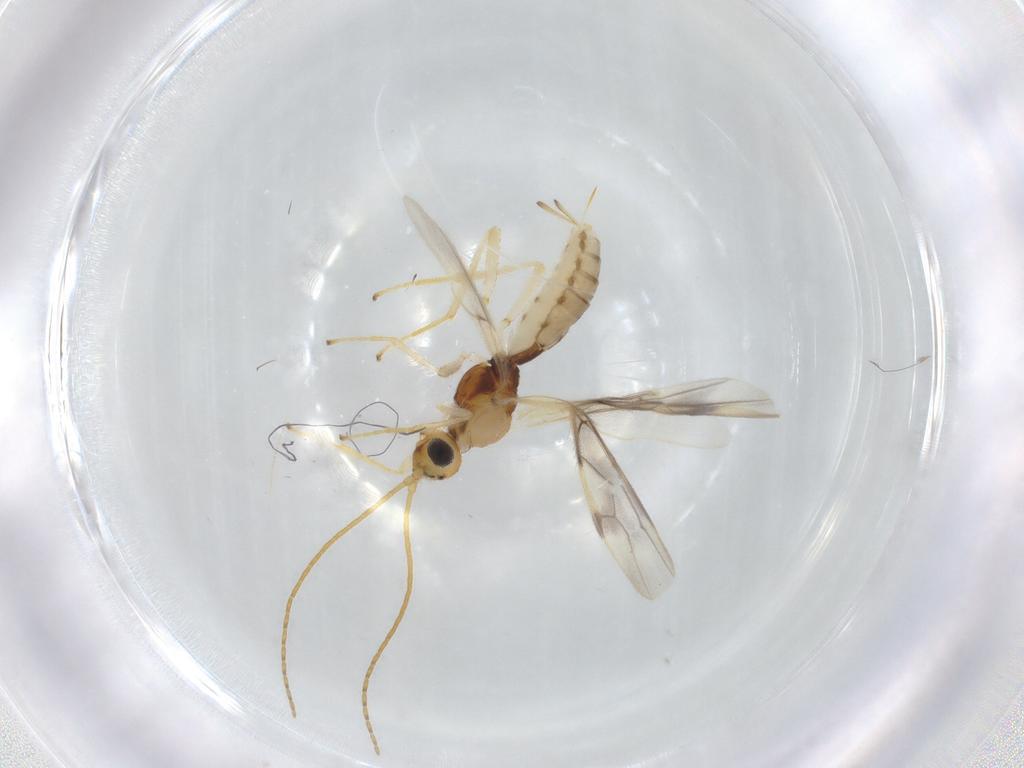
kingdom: Animalia
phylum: Arthropoda
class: Insecta
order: Hymenoptera
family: Braconidae
